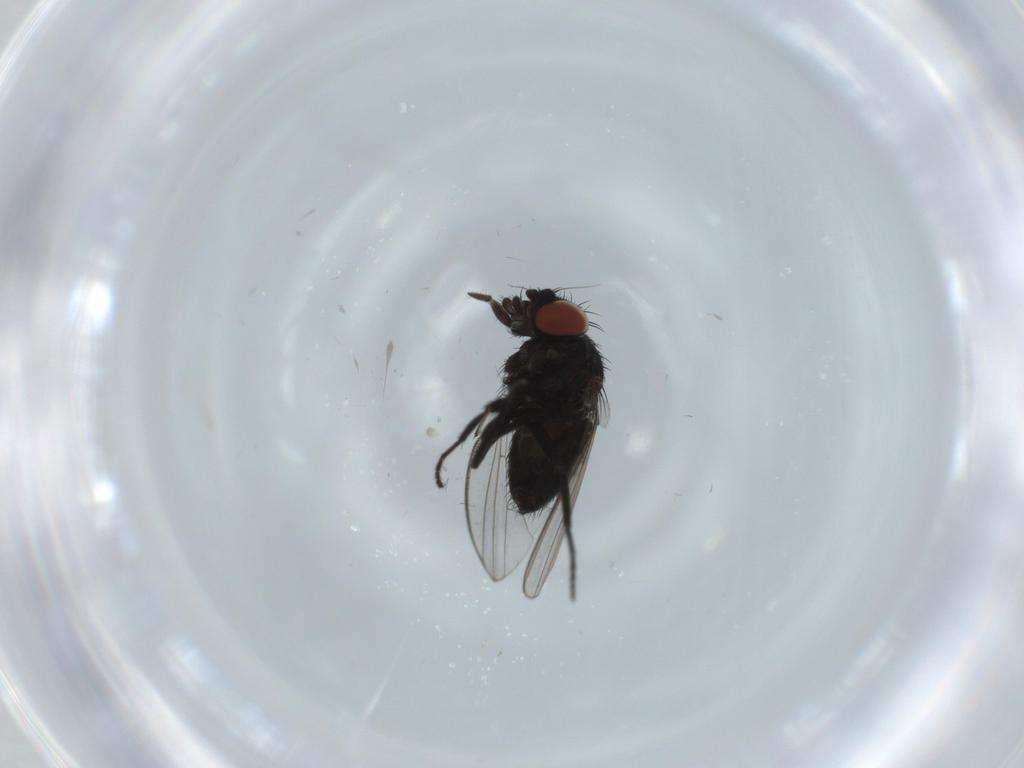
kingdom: Animalia
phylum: Arthropoda
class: Insecta
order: Diptera
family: Milichiidae
